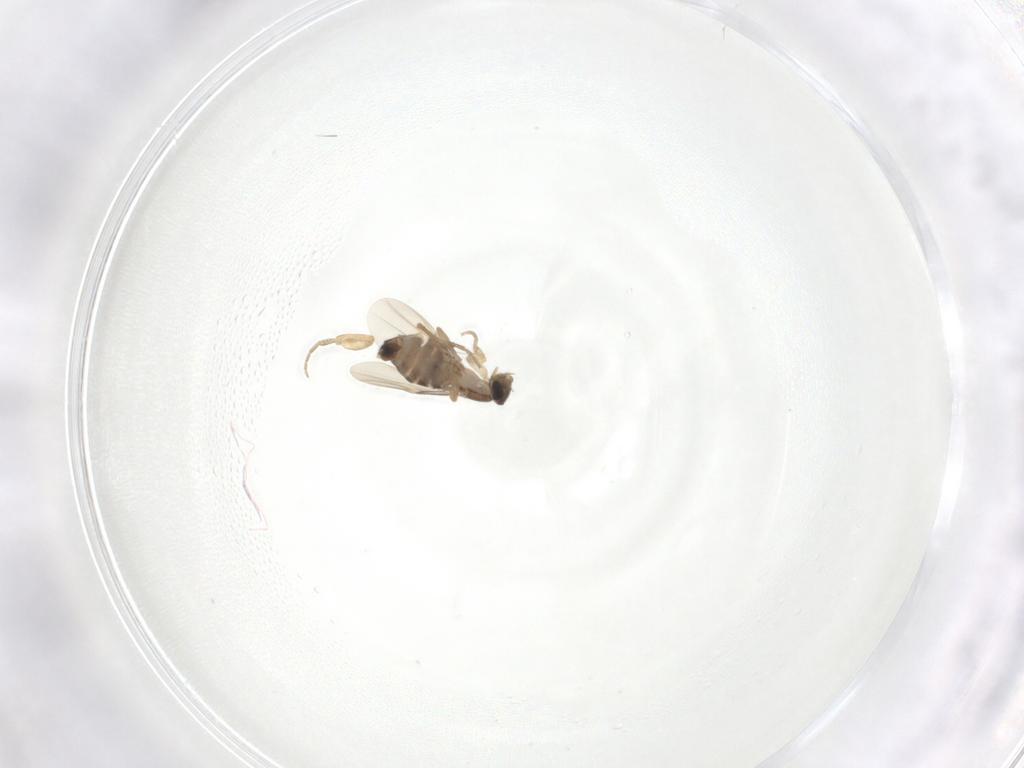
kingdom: Animalia
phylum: Arthropoda
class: Insecta
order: Diptera
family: Phoridae
